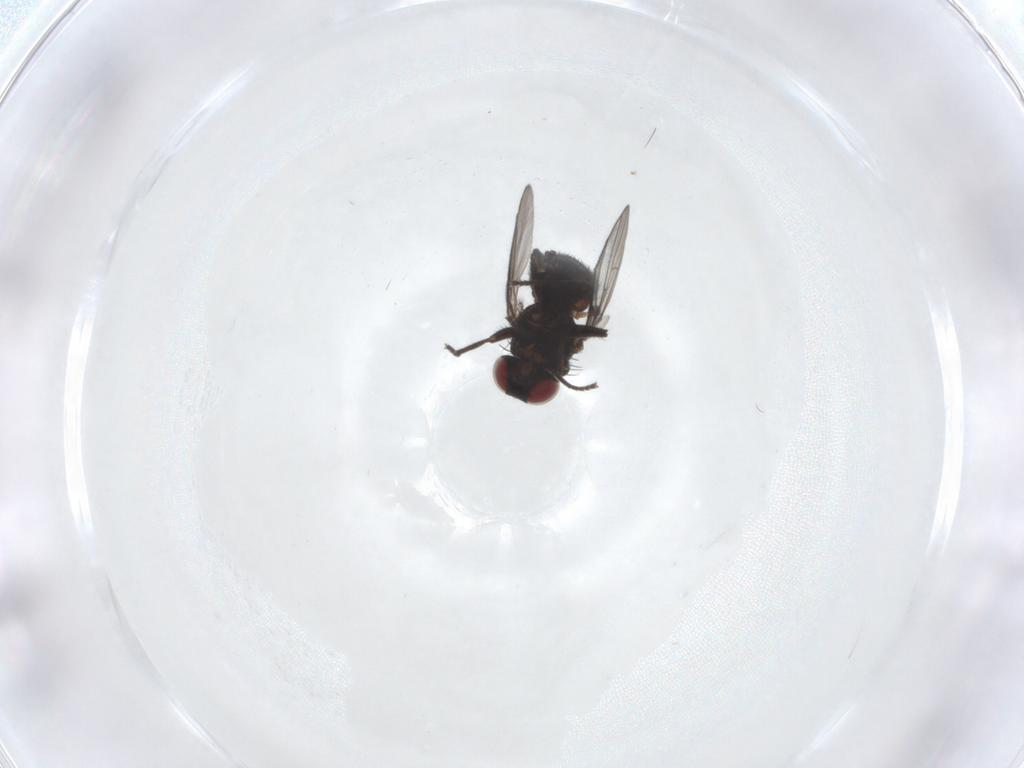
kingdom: Animalia
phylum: Arthropoda
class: Insecta
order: Diptera
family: Agromyzidae
